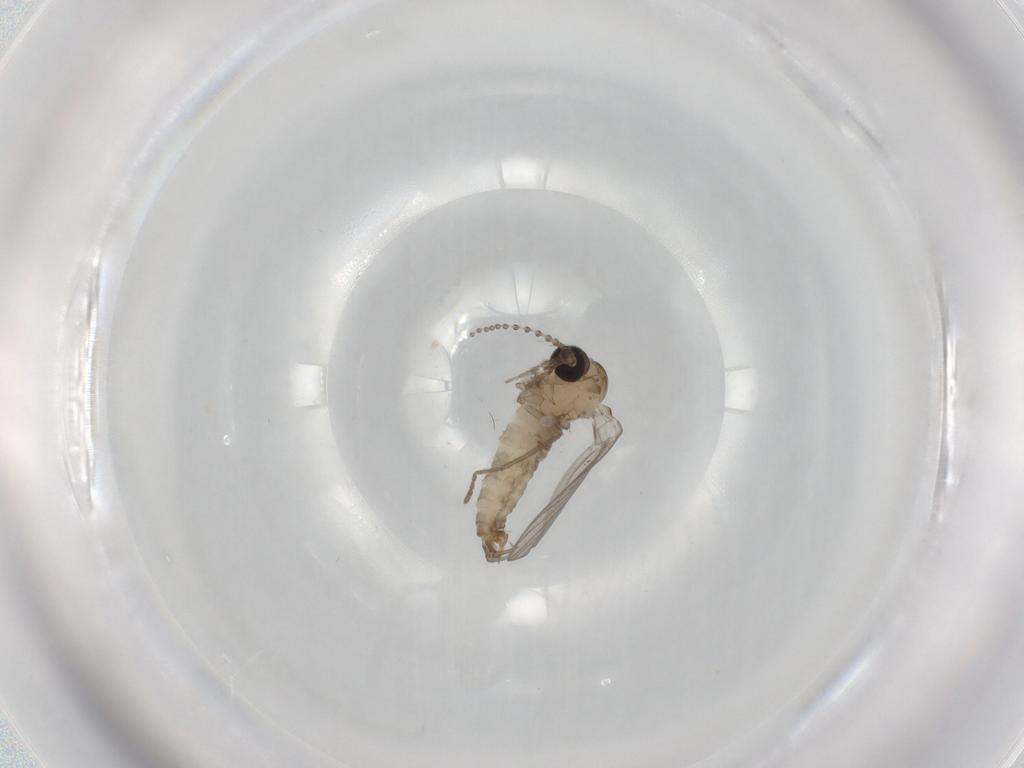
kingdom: Animalia
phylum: Arthropoda
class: Insecta
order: Diptera
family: Psychodidae
